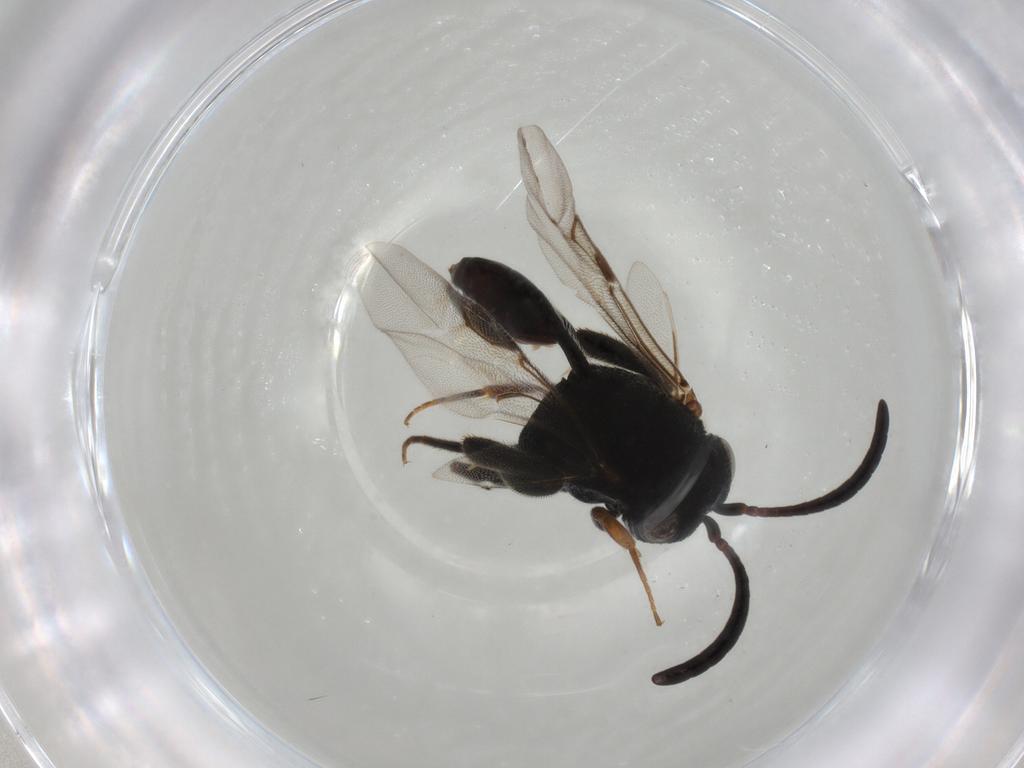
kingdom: Animalia
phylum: Arthropoda
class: Insecta
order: Hymenoptera
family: Evaniidae
